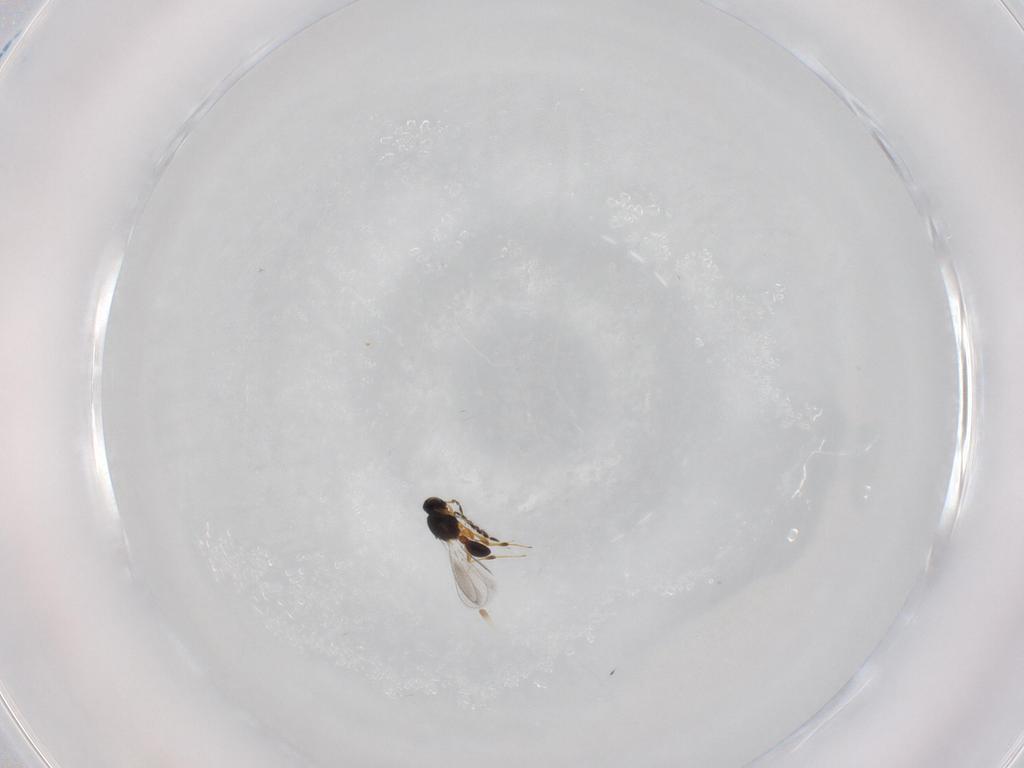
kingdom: Animalia
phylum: Arthropoda
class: Insecta
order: Hymenoptera
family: Platygastridae
